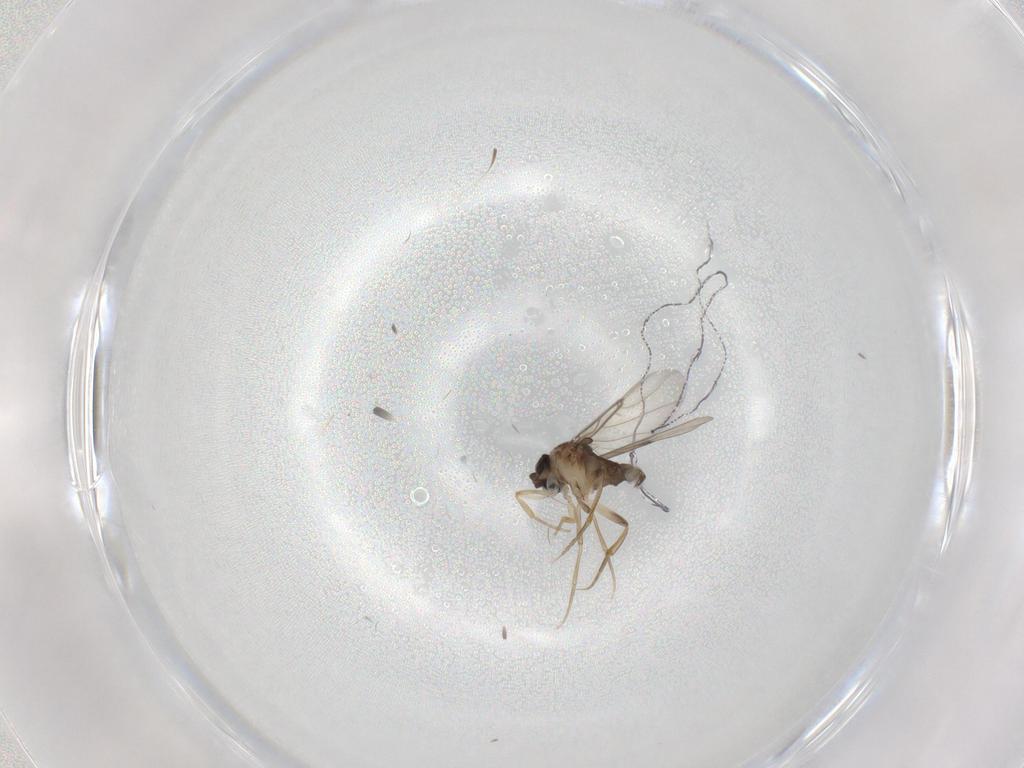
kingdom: Animalia
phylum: Arthropoda
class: Insecta
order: Diptera
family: Phoridae
